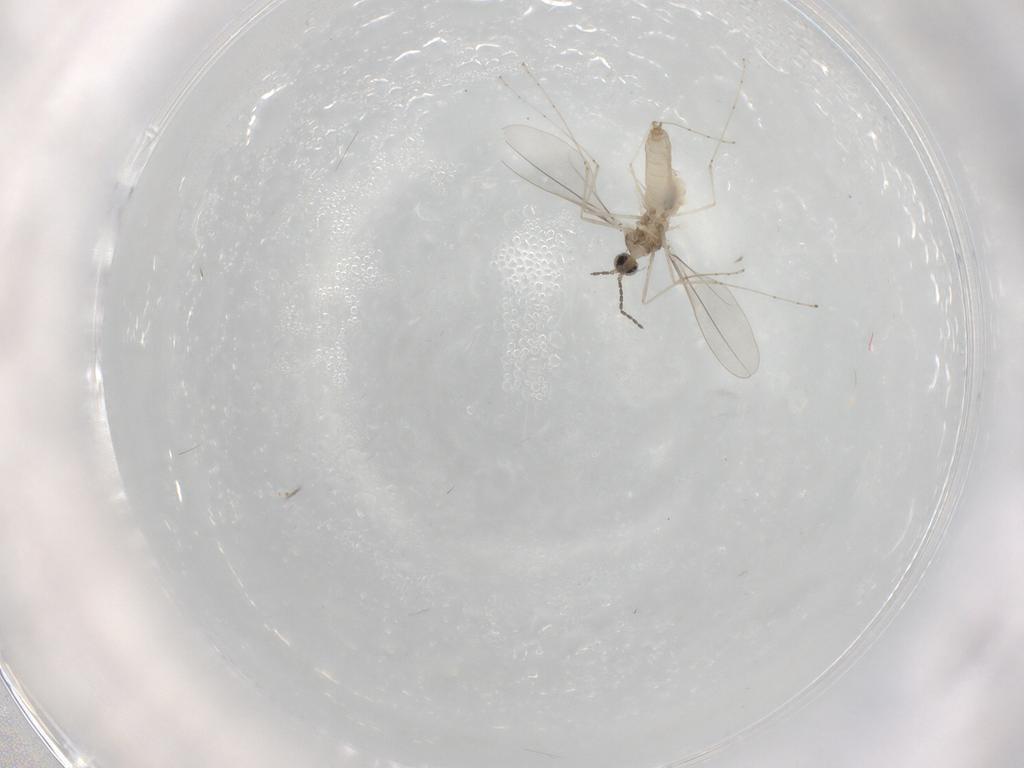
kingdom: Animalia
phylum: Arthropoda
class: Insecta
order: Diptera
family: Cecidomyiidae
